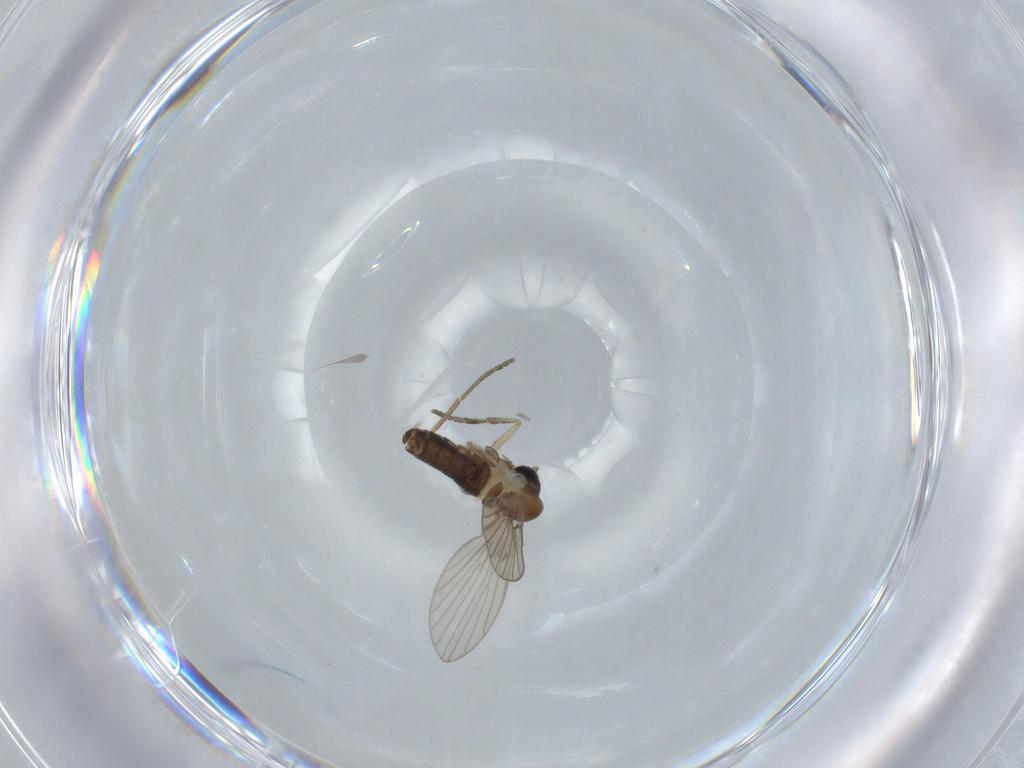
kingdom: Animalia
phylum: Arthropoda
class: Insecta
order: Diptera
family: Psychodidae
